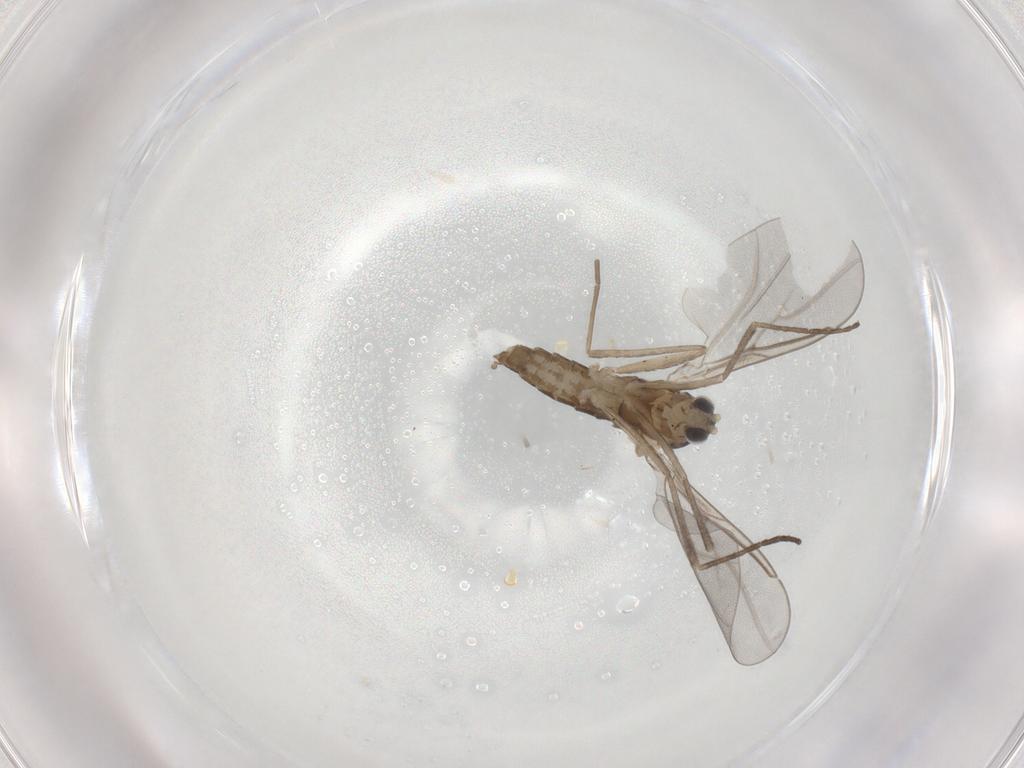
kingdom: Animalia
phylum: Arthropoda
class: Insecta
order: Diptera
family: Cecidomyiidae
